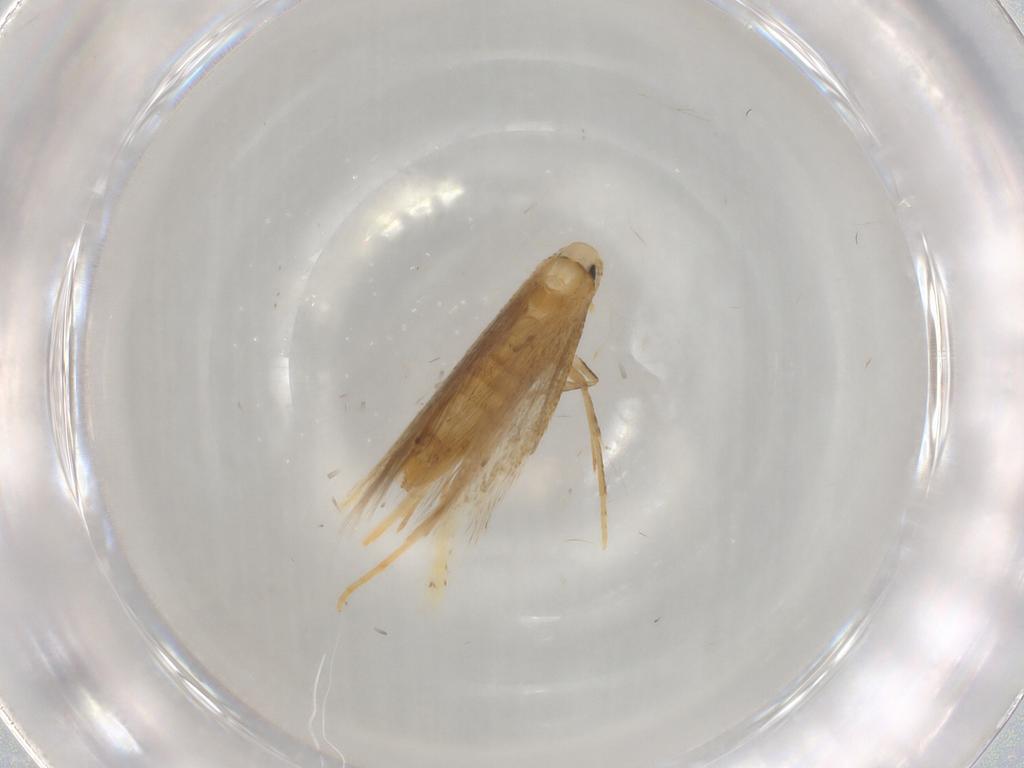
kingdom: Animalia
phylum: Arthropoda
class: Insecta
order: Lepidoptera
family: Tischeriidae
